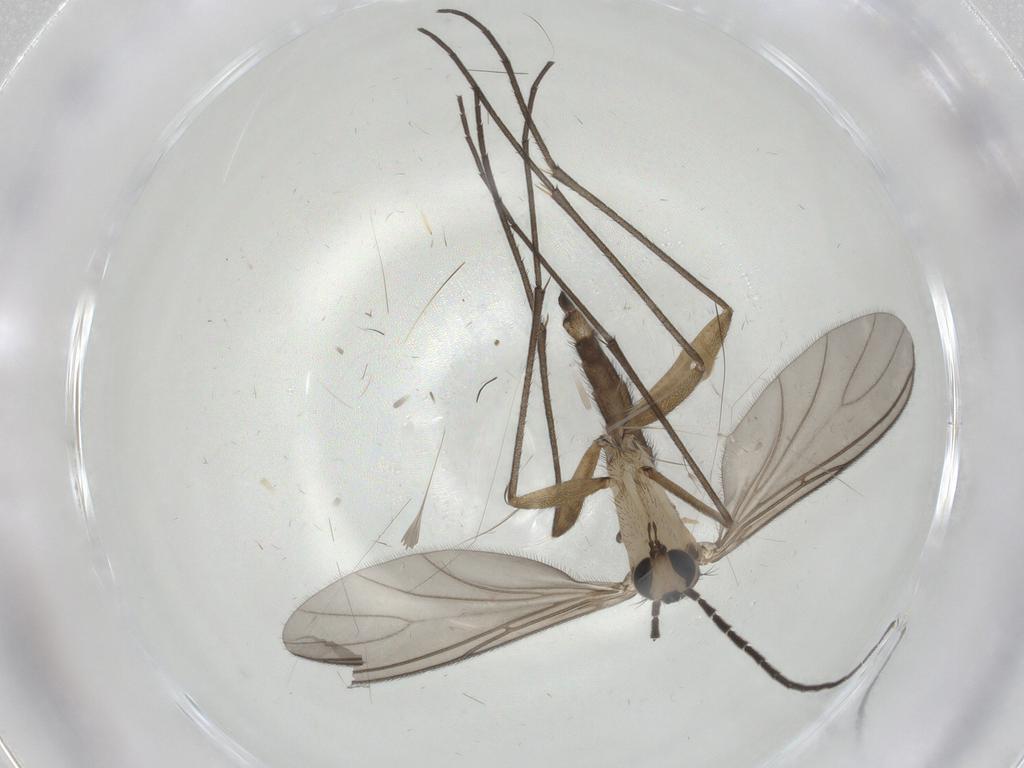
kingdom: Animalia
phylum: Arthropoda
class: Insecta
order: Diptera
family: Sciaridae
